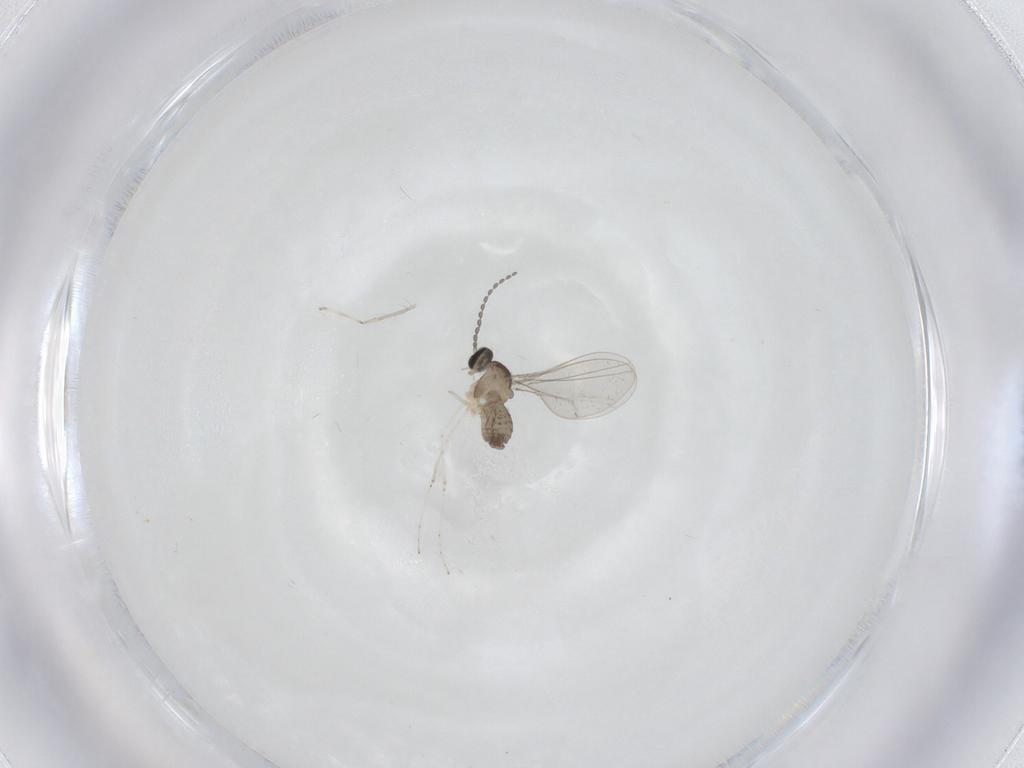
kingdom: Animalia
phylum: Arthropoda
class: Insecta
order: Diptera
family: Cecidomyiidae
